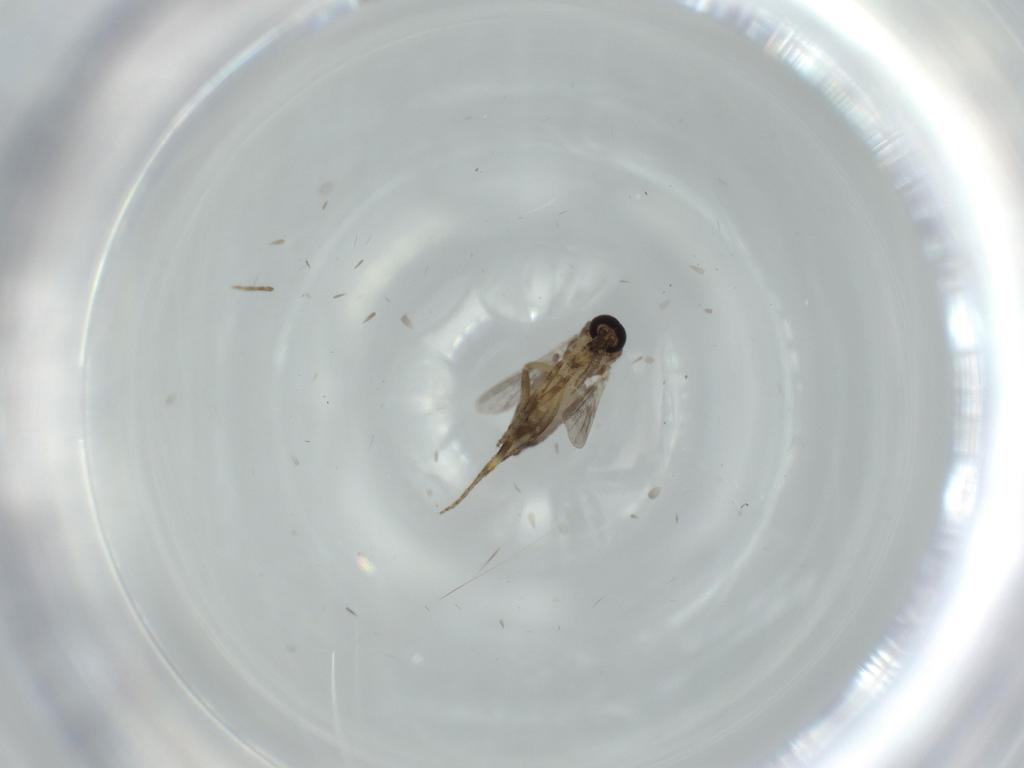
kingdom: Animalia
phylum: Arthropoda
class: Insecta
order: Diptera
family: Ceratopogonidae
